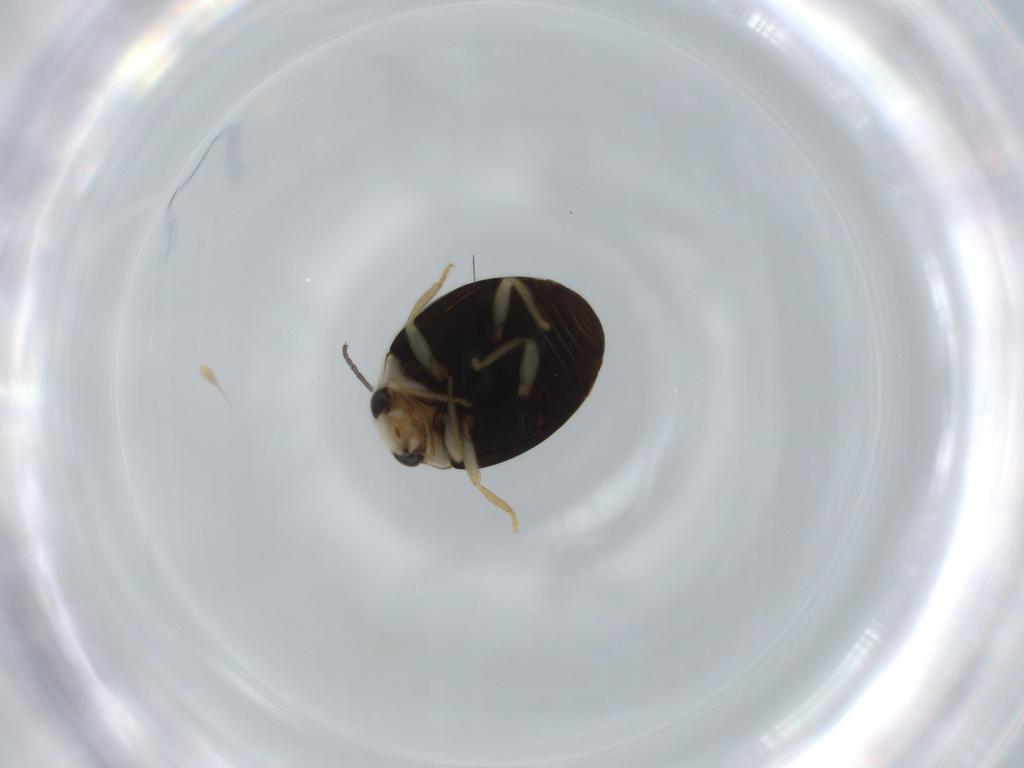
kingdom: Animalia
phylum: Arthropoda
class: Insecta
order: Coleoptera
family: Coccinellidae
